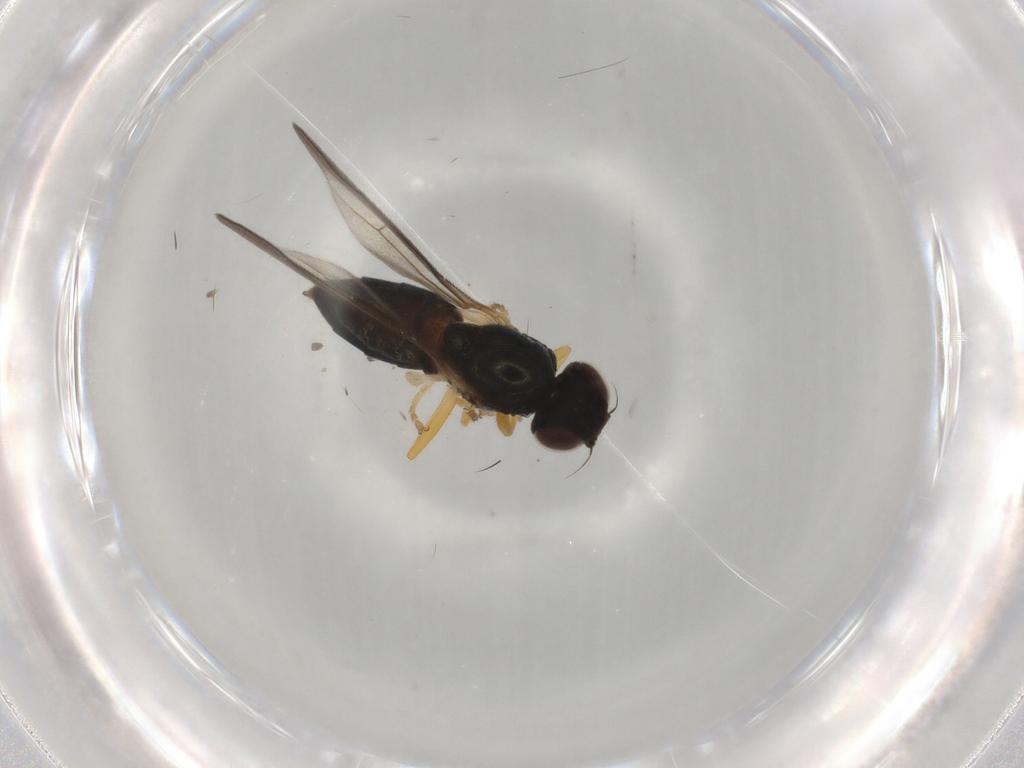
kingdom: Animalia
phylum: Arthropoda
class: Insecta
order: Diptera
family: Chloropidae
